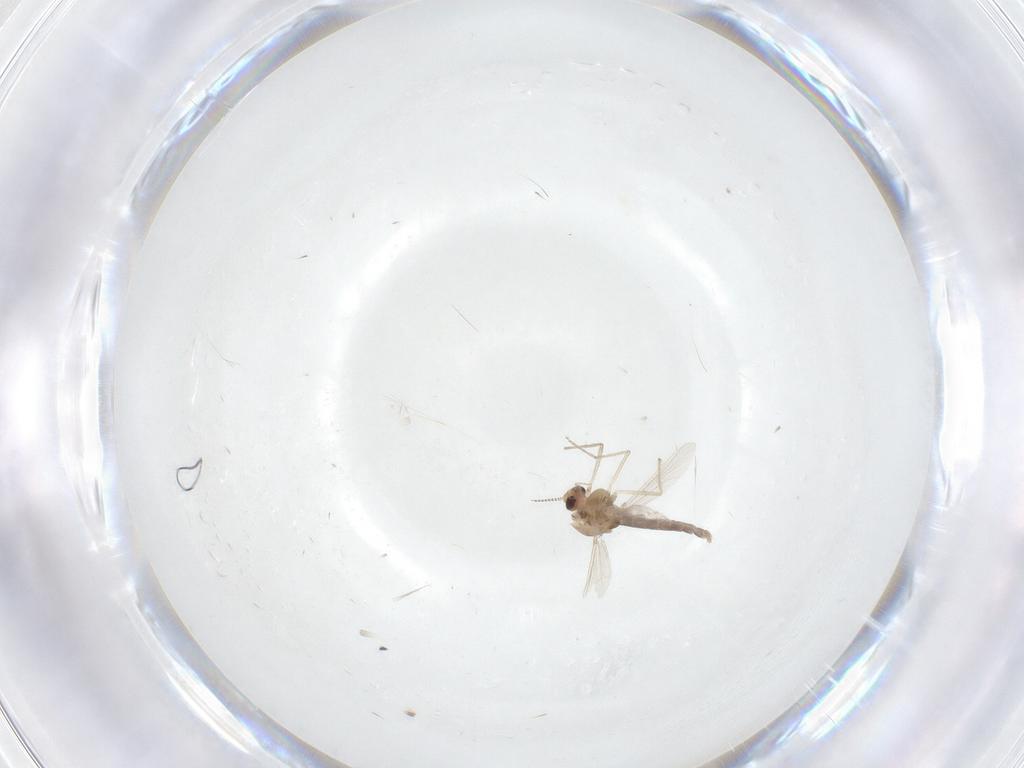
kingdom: Animalia
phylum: Arthropoda
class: Insecta
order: Diptera
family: Chironomidae
